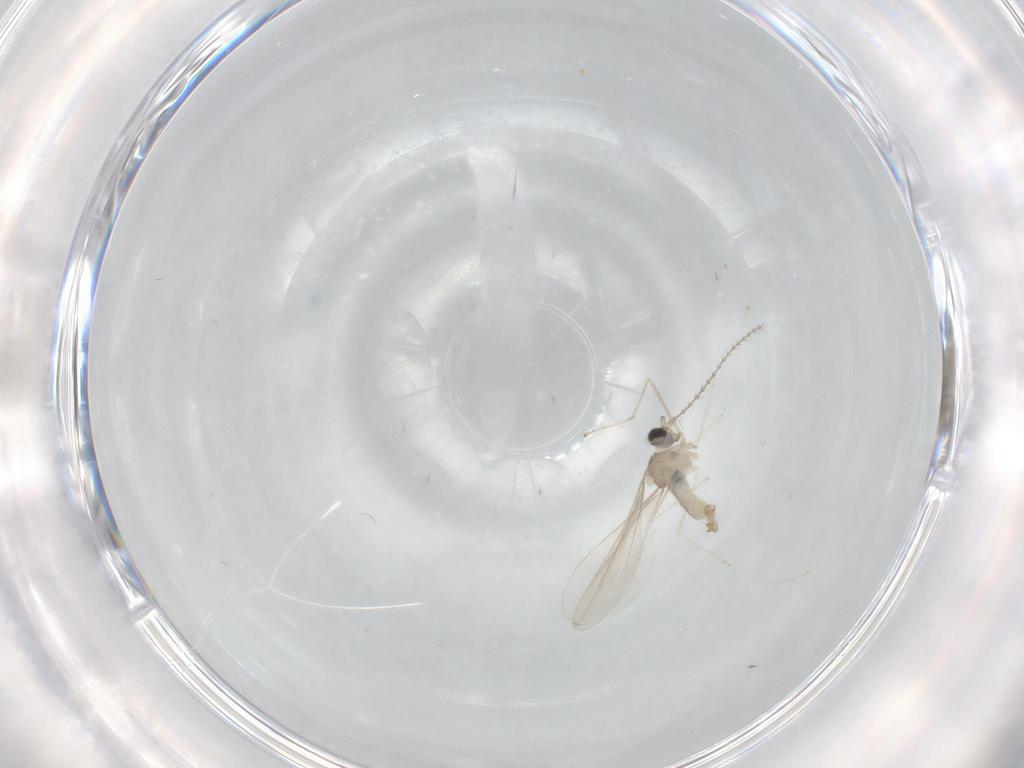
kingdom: Animalia
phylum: Arthropoda
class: Insecta
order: Diptera
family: Cecidomyiidae
